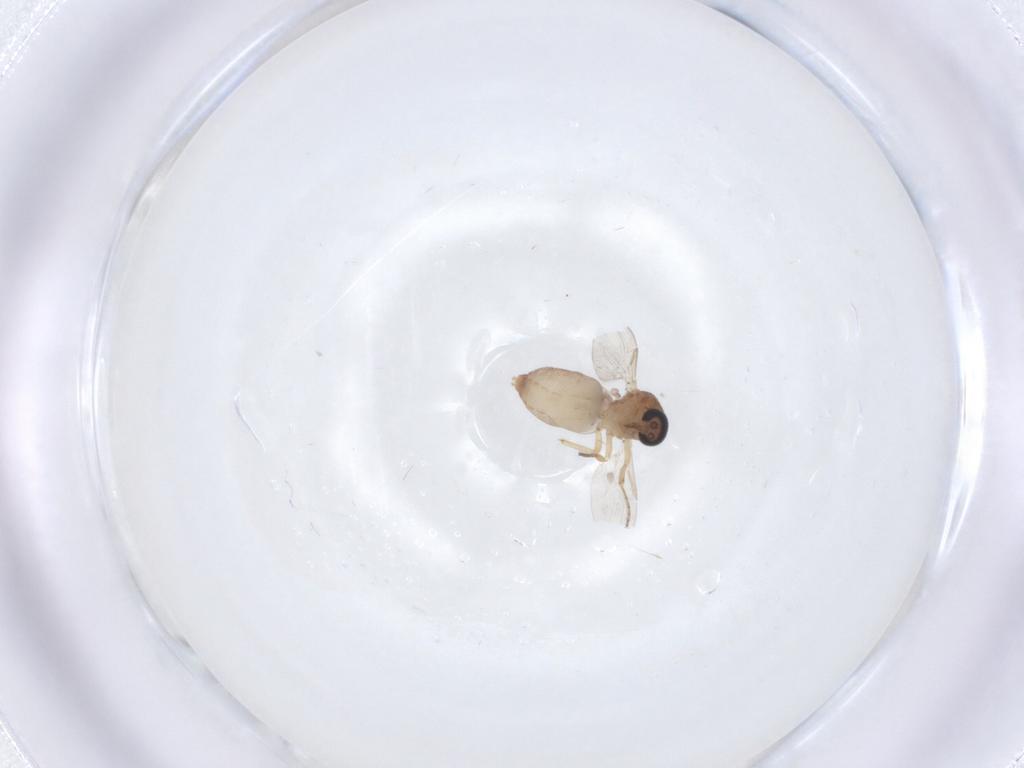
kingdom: Animalia
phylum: Arthropoda
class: Insecta
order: Diptera
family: Ceratopogonidae
